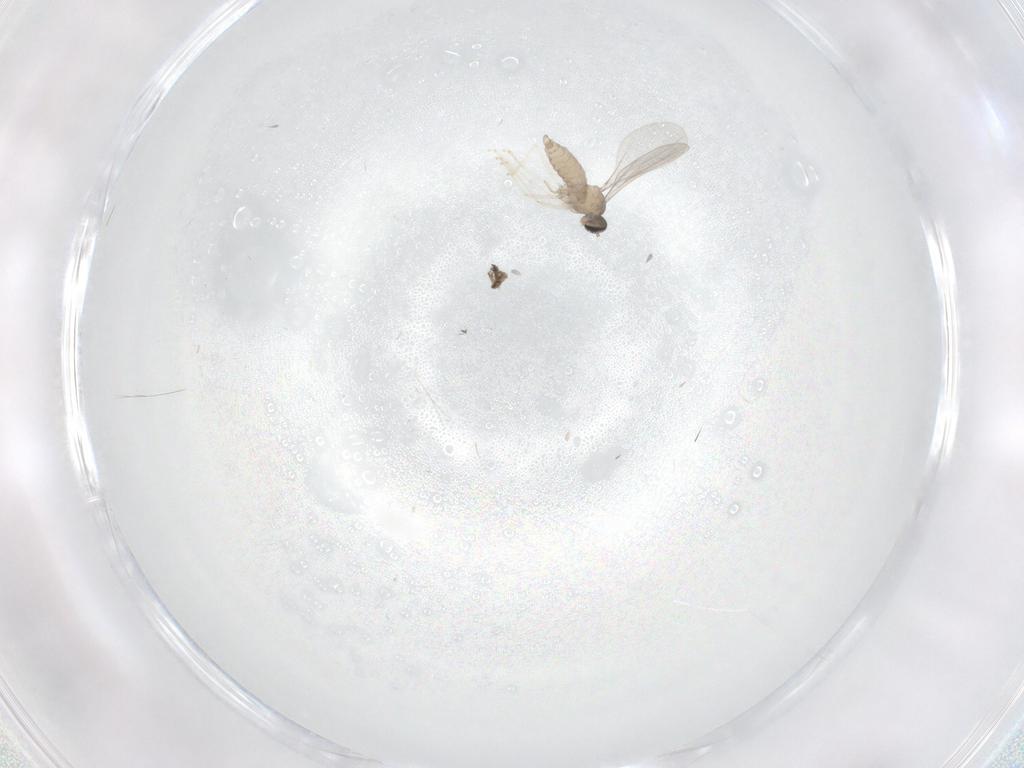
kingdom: Animalia
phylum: Arthropoda
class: Insecta
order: Diptera
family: Sciaridae
